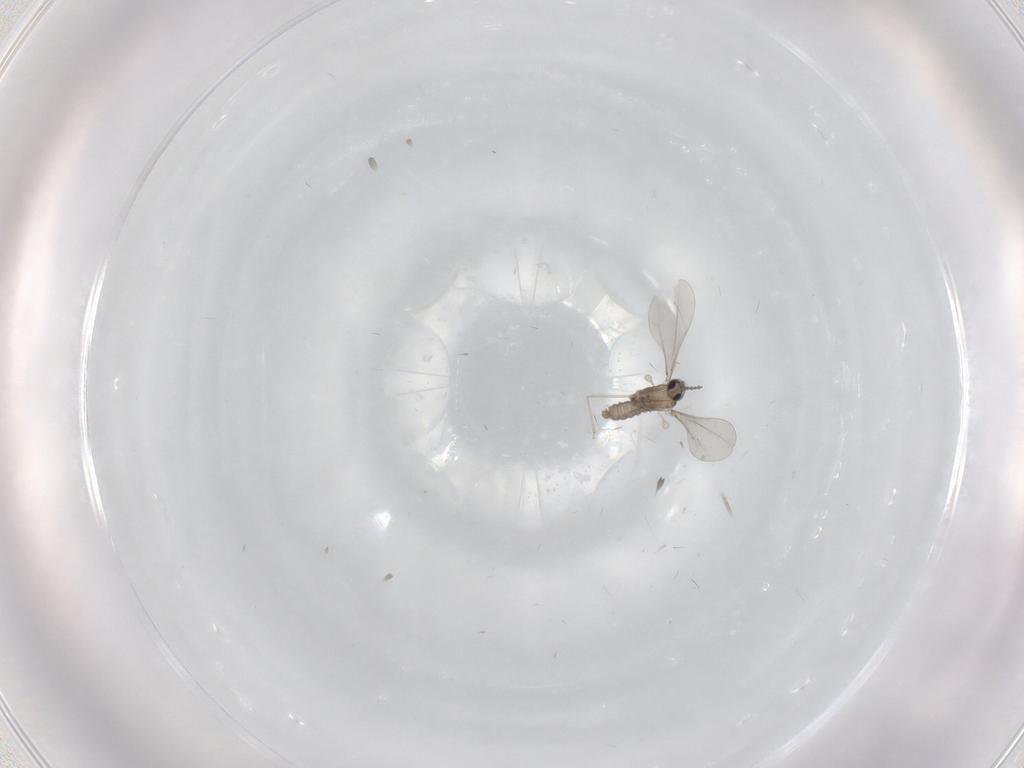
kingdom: Animalia
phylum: Arthropoda
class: Insecta
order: Diptera
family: Cecidomyiidae
